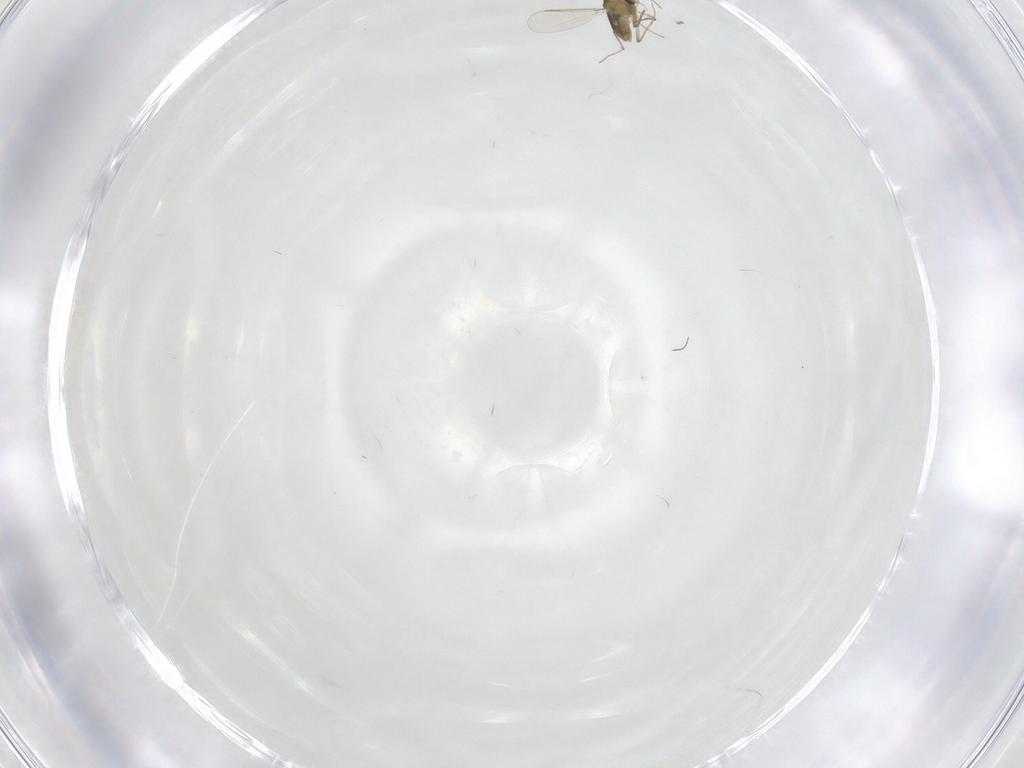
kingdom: Animalia
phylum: Arthropoda
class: Insecta
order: Diptera
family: Chironomidae
